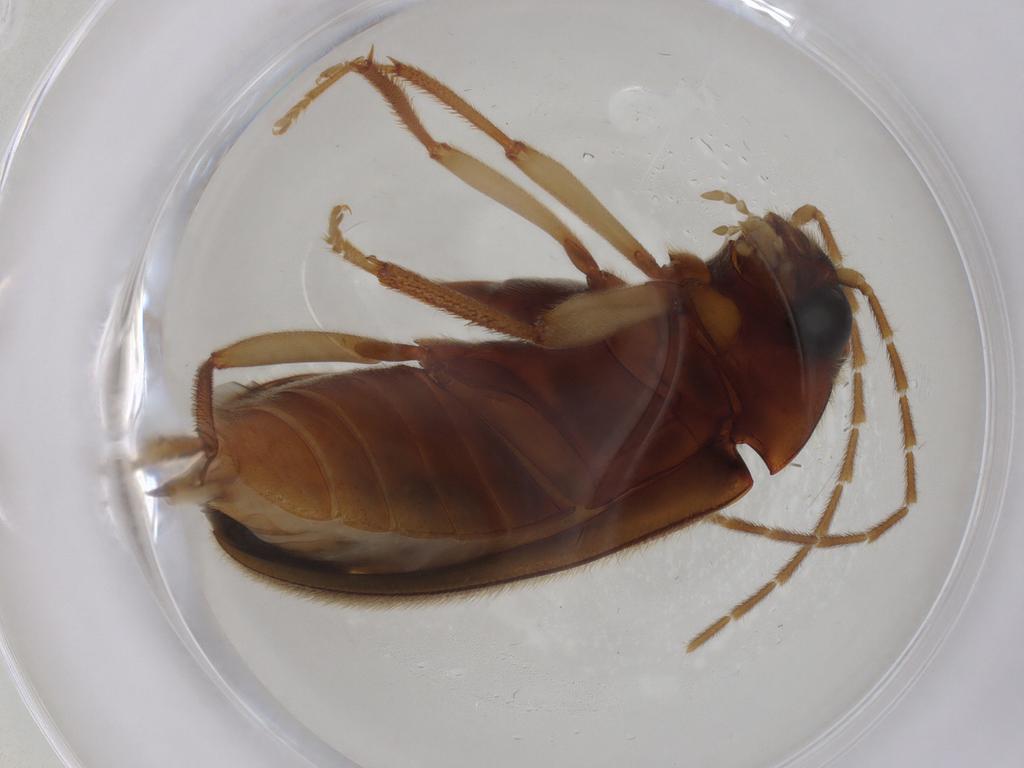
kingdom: Animalia
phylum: Arthropoda
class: Insecta
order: Coleoptera
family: Ptilodactylidae
